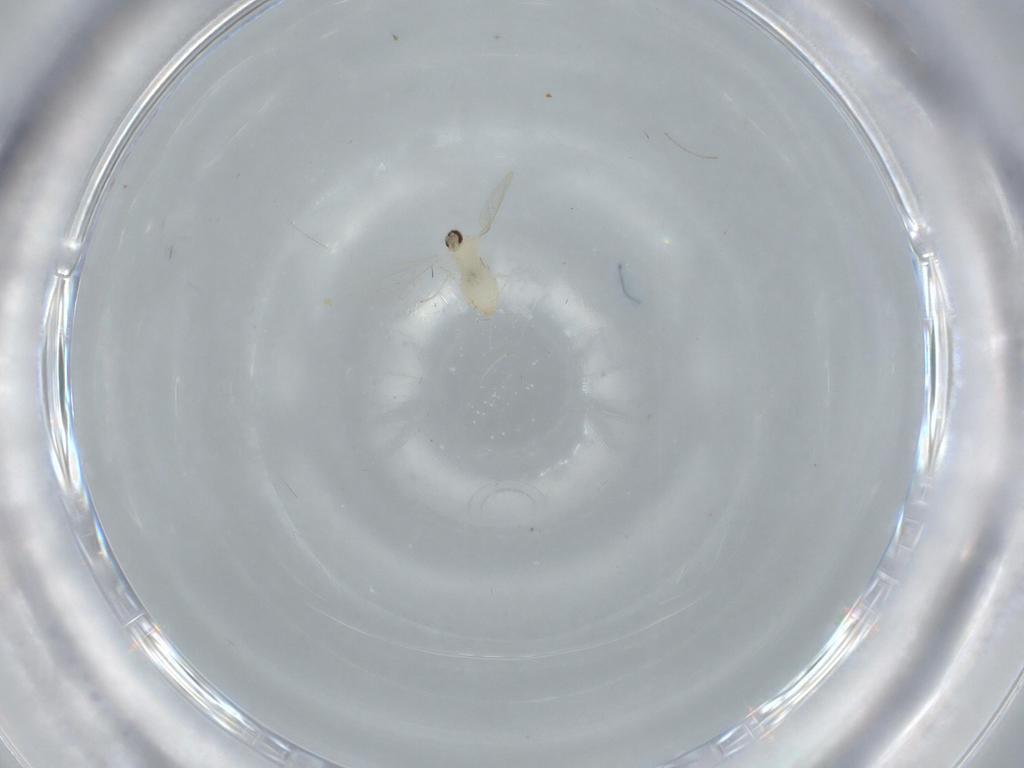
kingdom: Animalia
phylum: Arthropoda
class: Insecta
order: Diptera
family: Cecidomyiidae
